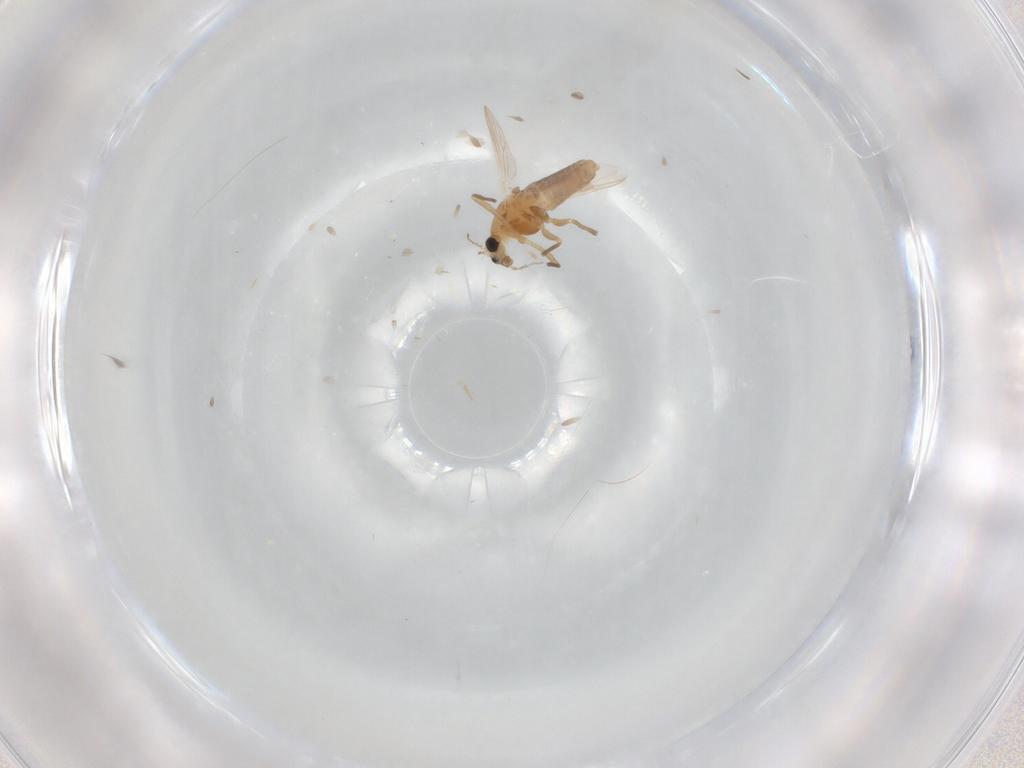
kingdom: Animalia
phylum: Arthropoda
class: Insecta
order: Diptera
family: Chironomidae
